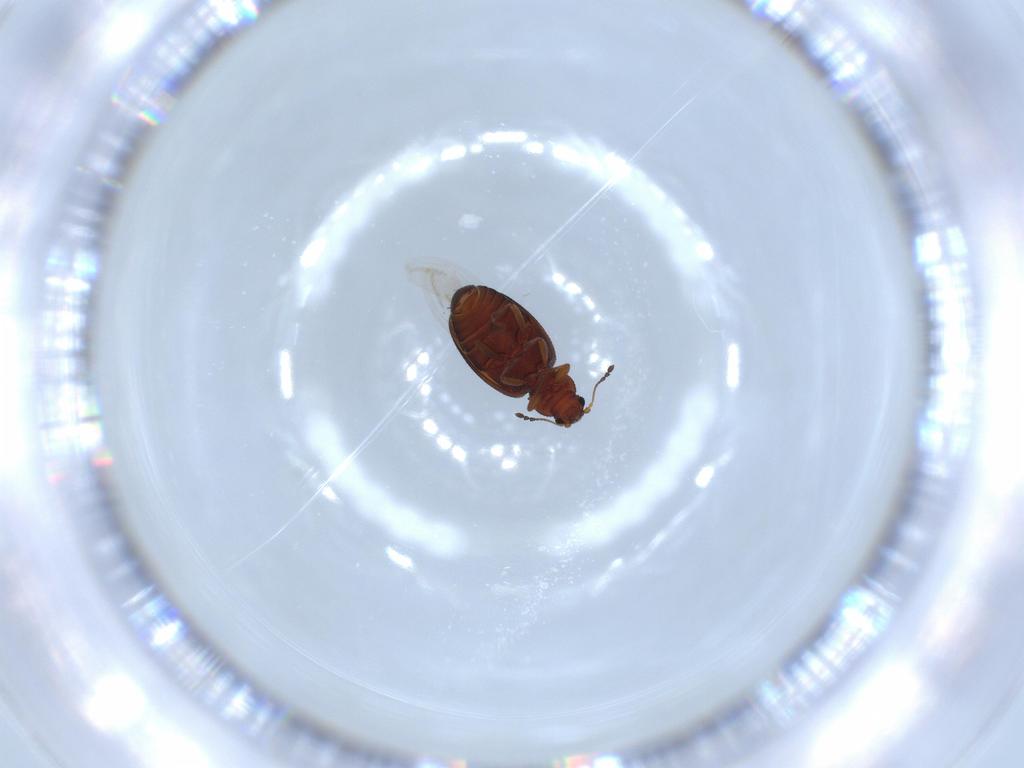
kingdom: Animalia
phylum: Arthropoda
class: Insecta
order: Coleoptera
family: Latridiidae
